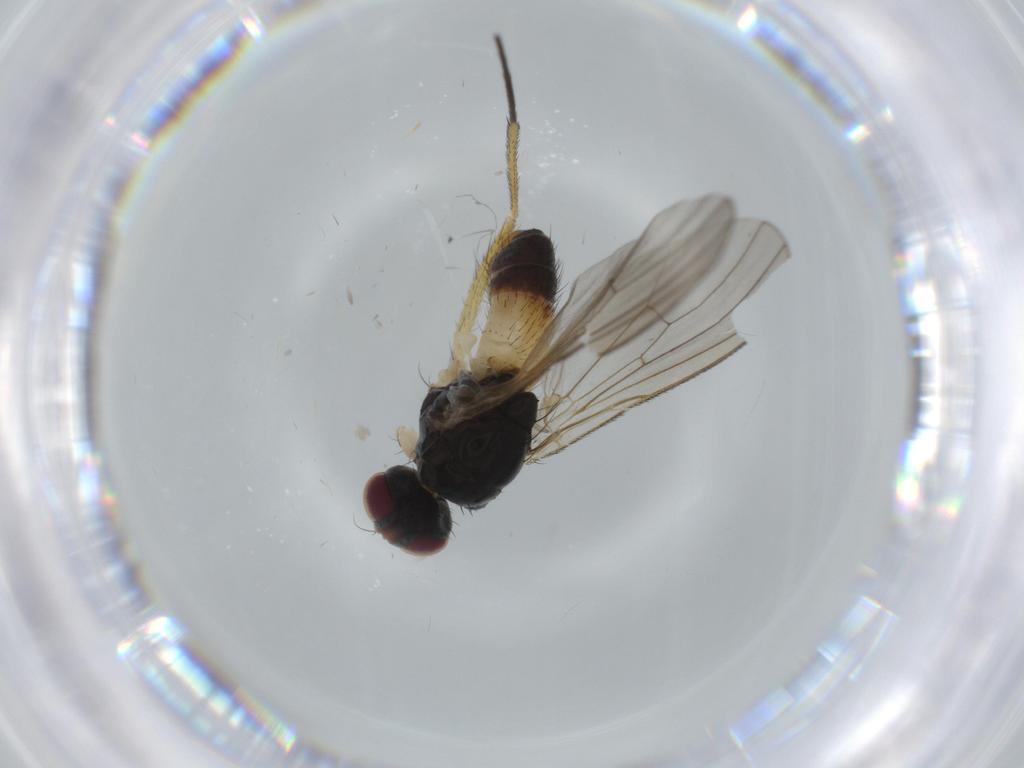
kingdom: Animalia
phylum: Arthropoda
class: Insecta
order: Diptera
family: Muscidae
